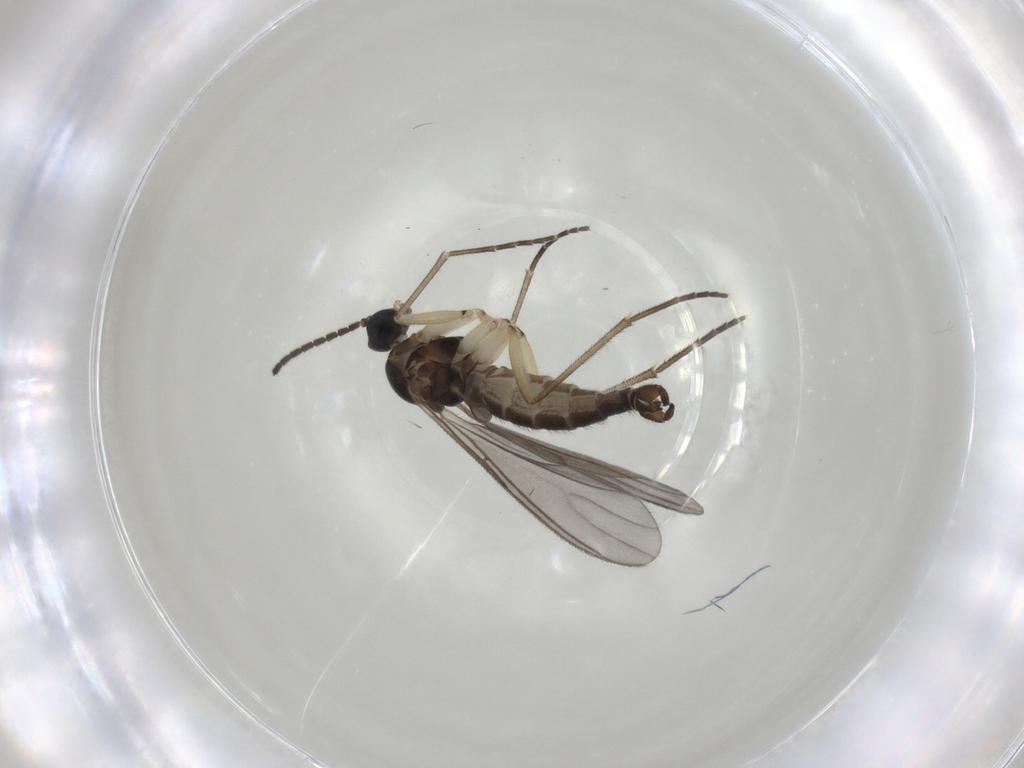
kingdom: Animalia
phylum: Arthropoda
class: Insecta
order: Diptera
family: Sciaridae
